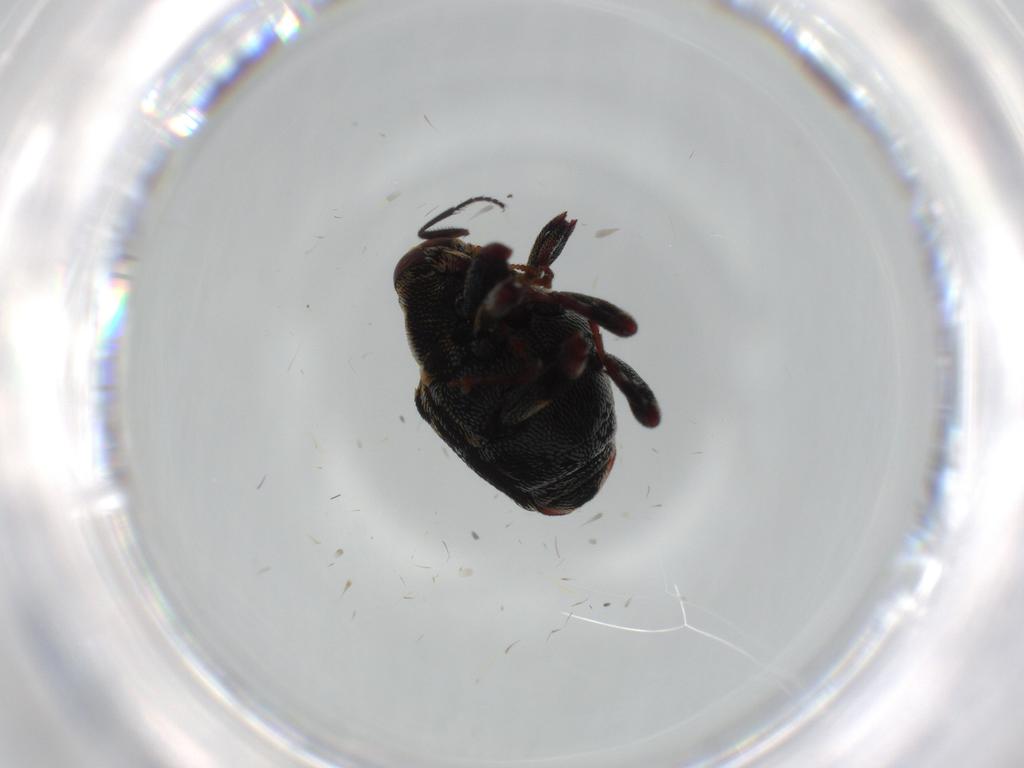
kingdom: Animalia
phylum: Arthropoda
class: Insecta
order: Coleoptera
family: Curculionidae
